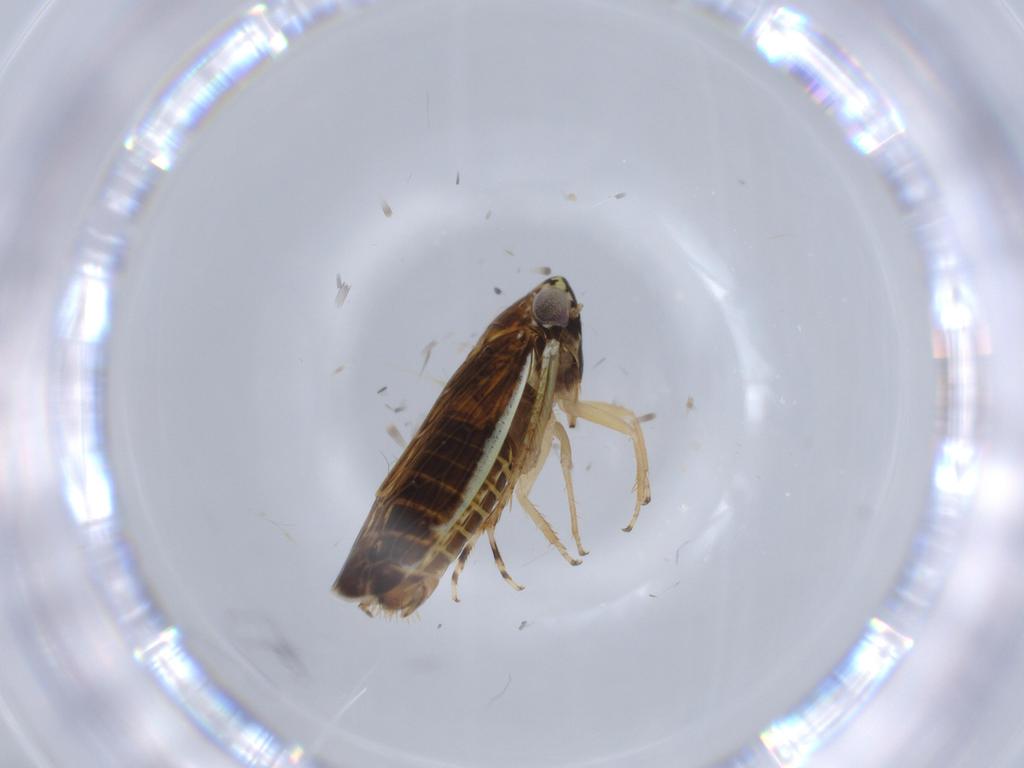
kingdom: Animalia
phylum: Arthropoda
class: Insecta
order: Hemiptera
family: Cicadellidae
